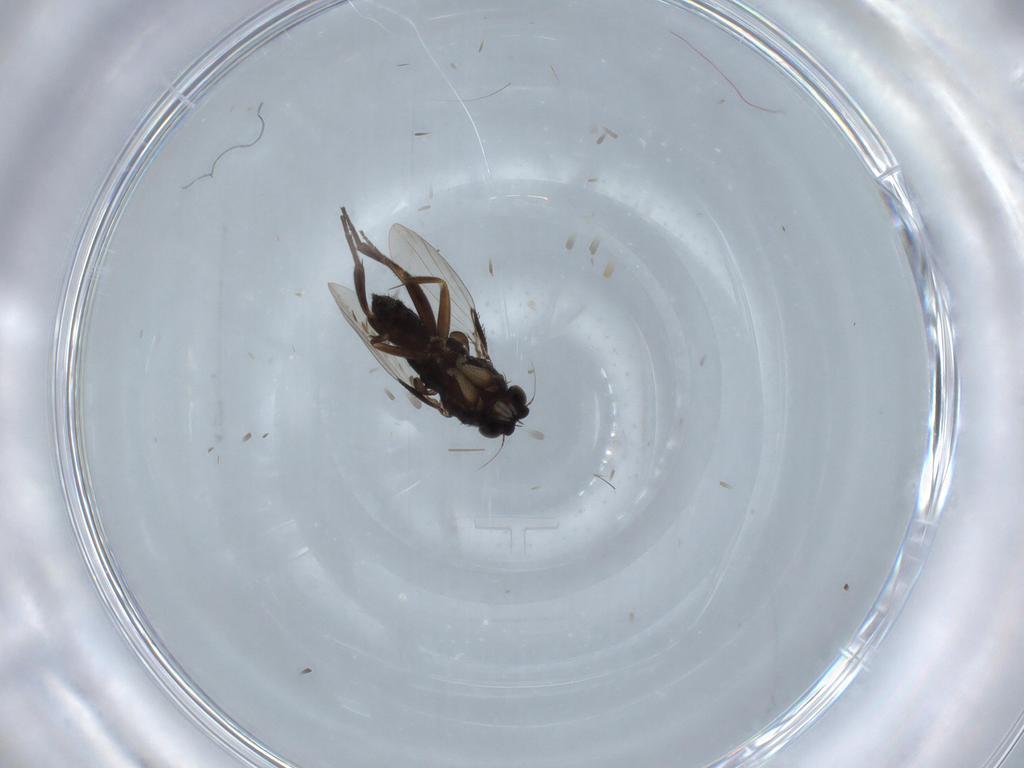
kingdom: Animalia
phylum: Arthropoda
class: Insecta
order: Diptera
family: Phoridae
